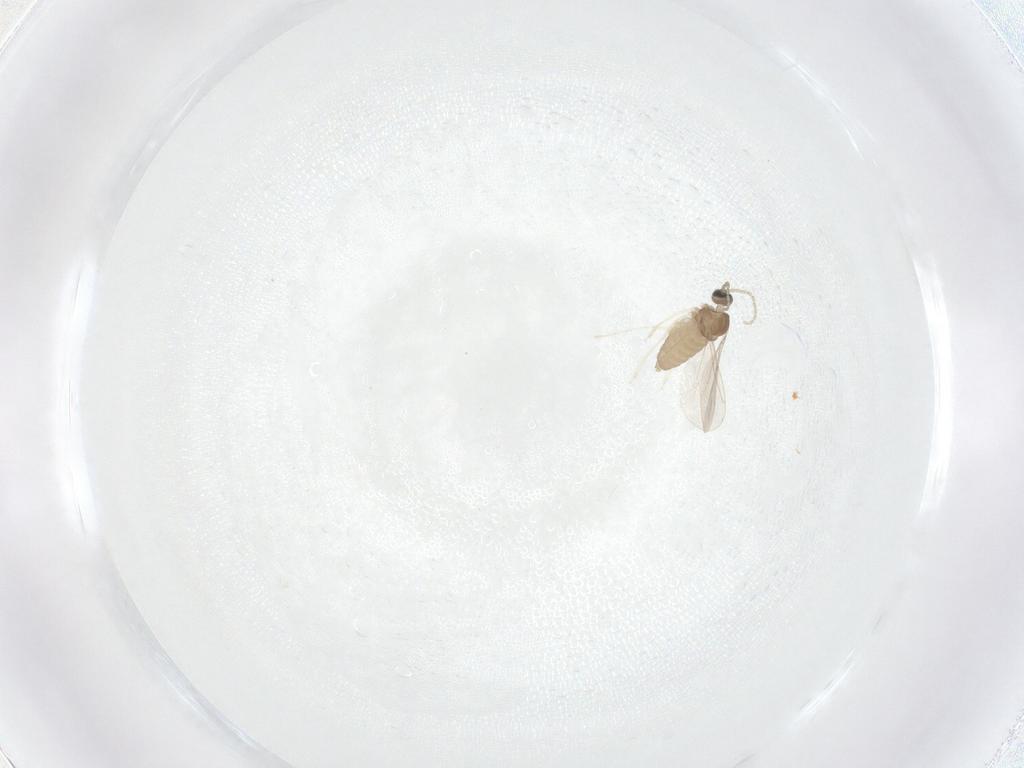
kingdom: Animalia
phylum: Arthropoda
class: Insecta
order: Diptera
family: Cecidomyiidae
